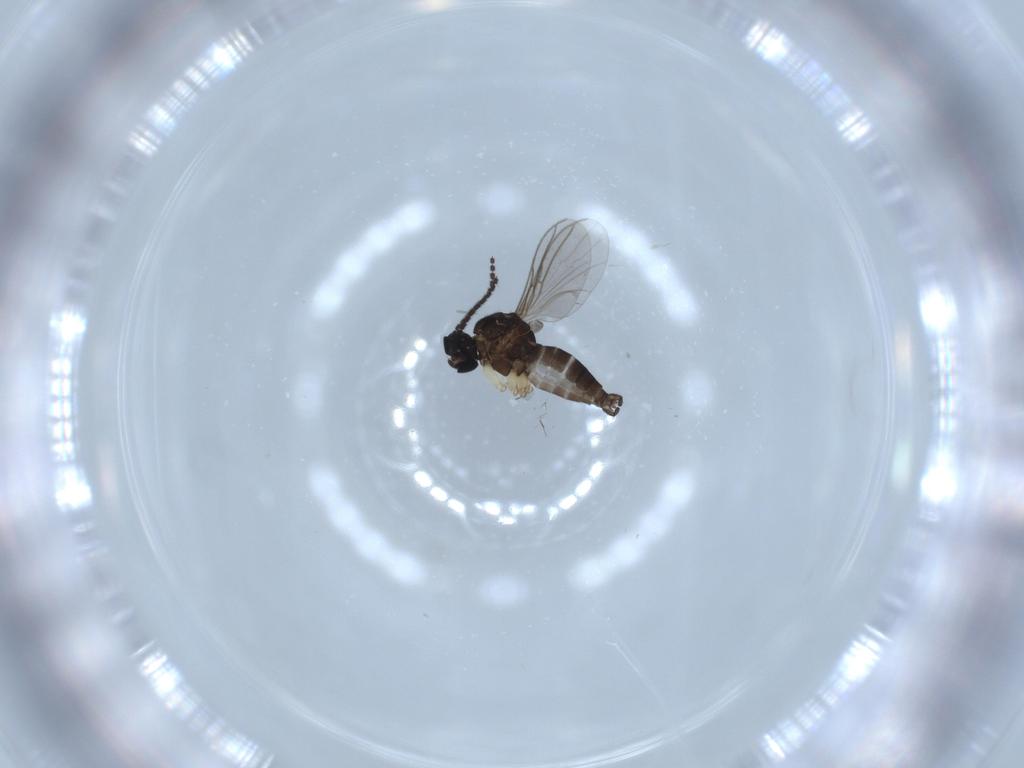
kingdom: Animalia
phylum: Arthropoda
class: Insecta
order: Diptera
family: Sciaridae
